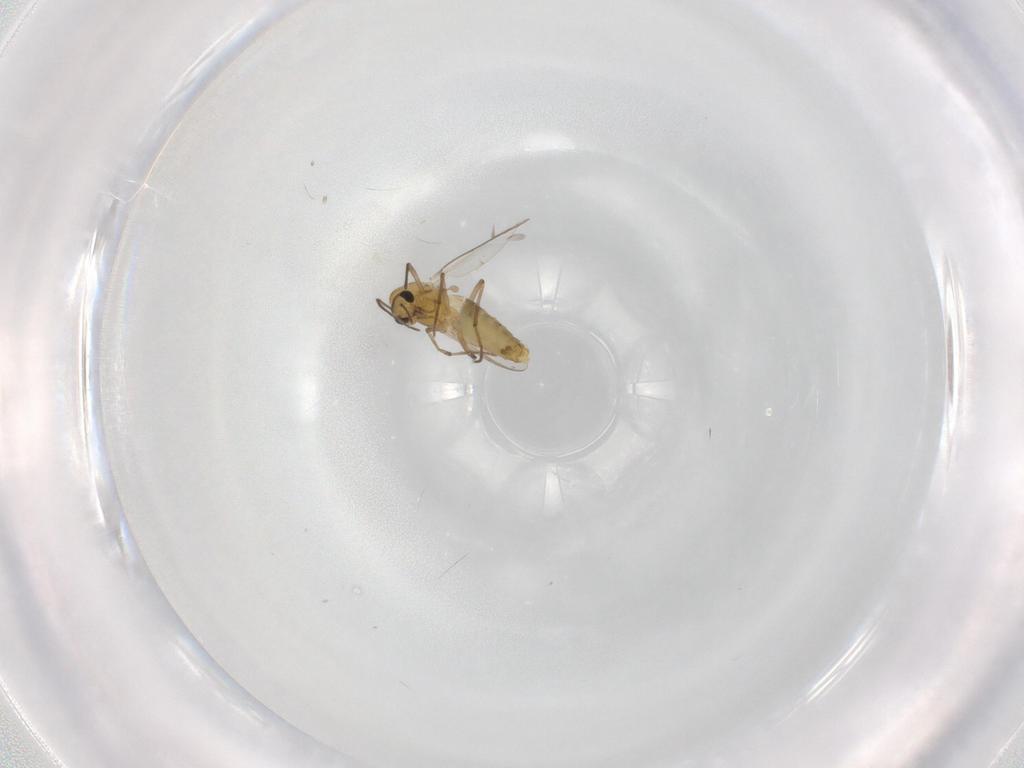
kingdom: Animalia
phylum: Arthropoda
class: Insecta
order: Diptera
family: Chironomidae
